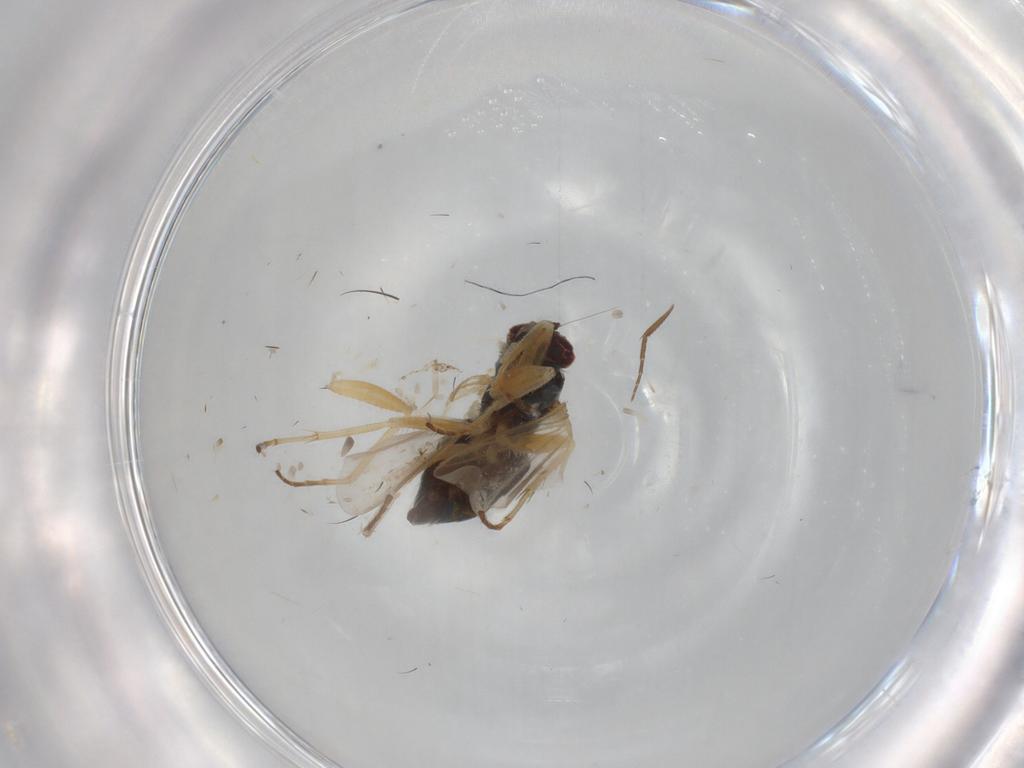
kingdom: Animalia
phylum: Arthropoda
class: Insecta
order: Diptera
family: Dolichopodidae
